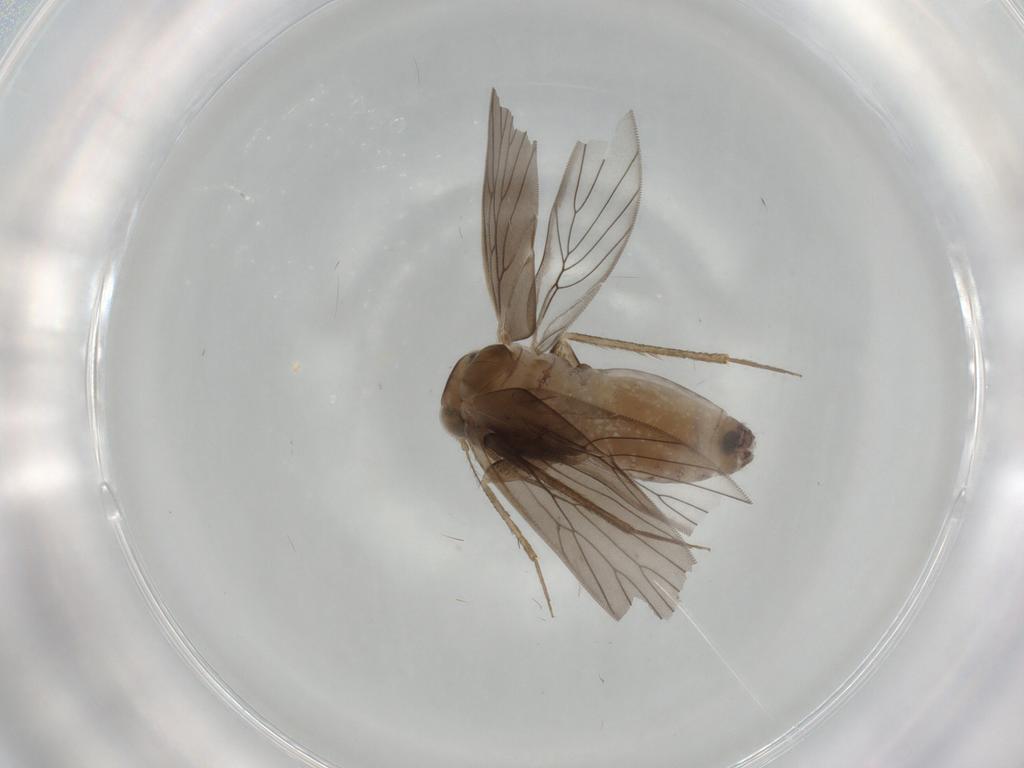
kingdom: Animalia
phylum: Arthropoda
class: Insecta
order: Psocodea
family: Lepidopsocidae
